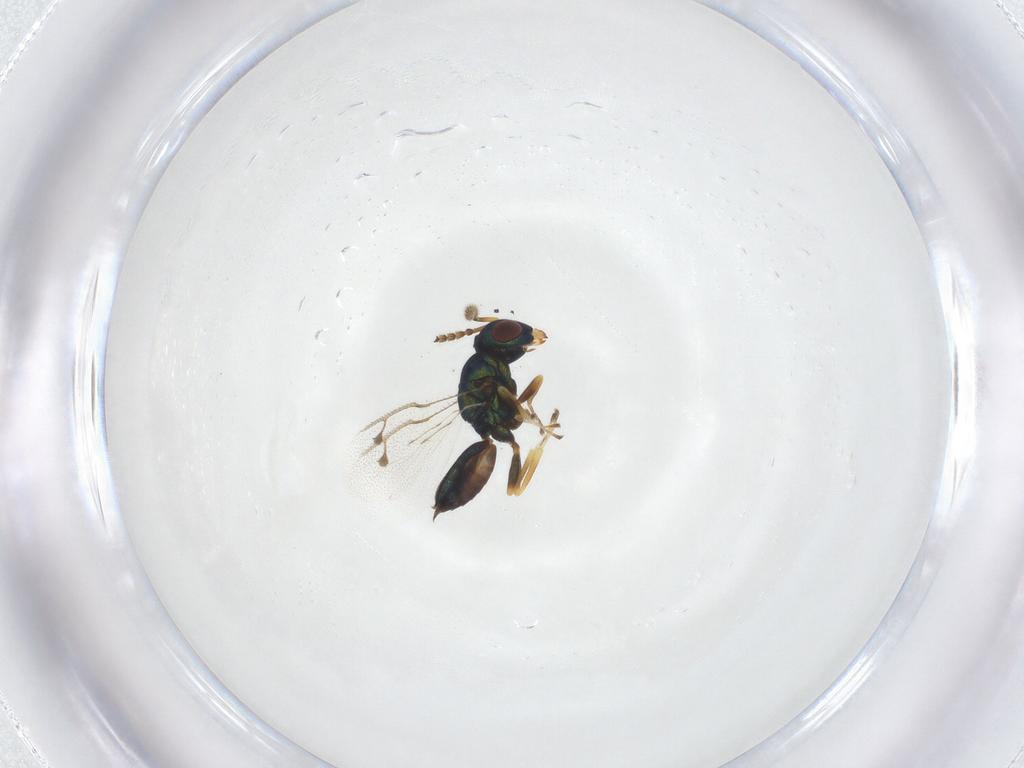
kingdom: Animalia
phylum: Arthropoda
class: Insecta
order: Hymenoptera
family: Pteromalidae
